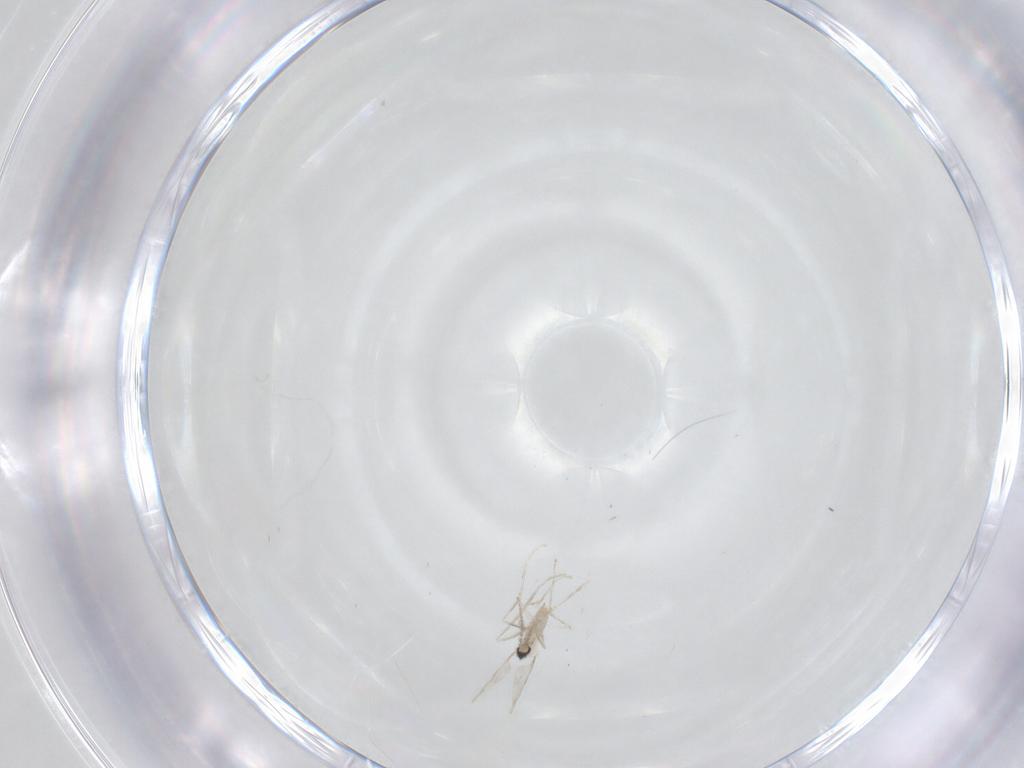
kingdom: Animalia
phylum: Arthropoda
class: Insecta
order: Diptera
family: Cecidomyiidae
